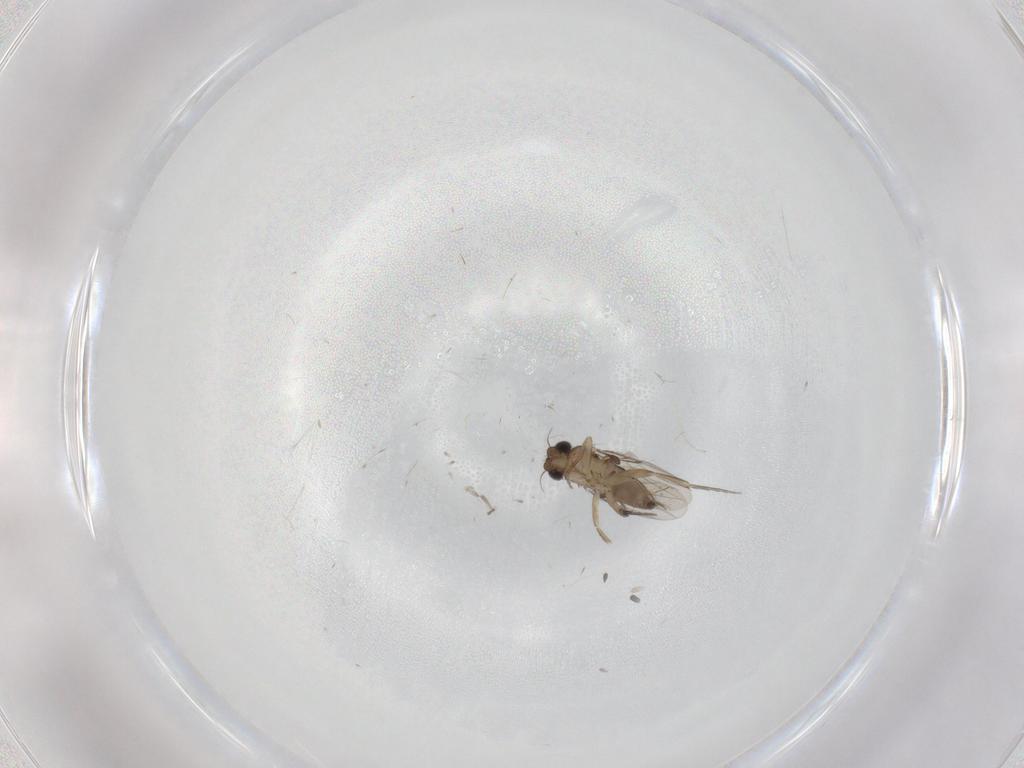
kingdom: Animalia
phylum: Arthropoda
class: Insecta
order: Diptera
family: Phoridae
